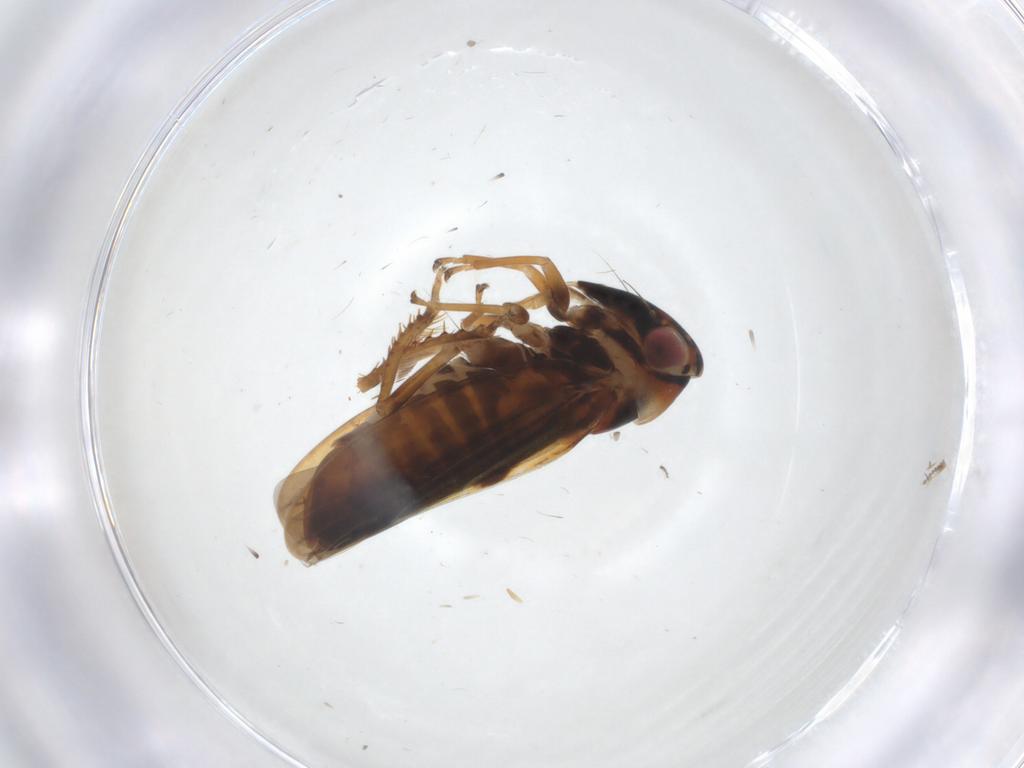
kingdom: Animalia
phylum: Arthropoda
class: Insecta
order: Hemiptera
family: Cicadellidae
